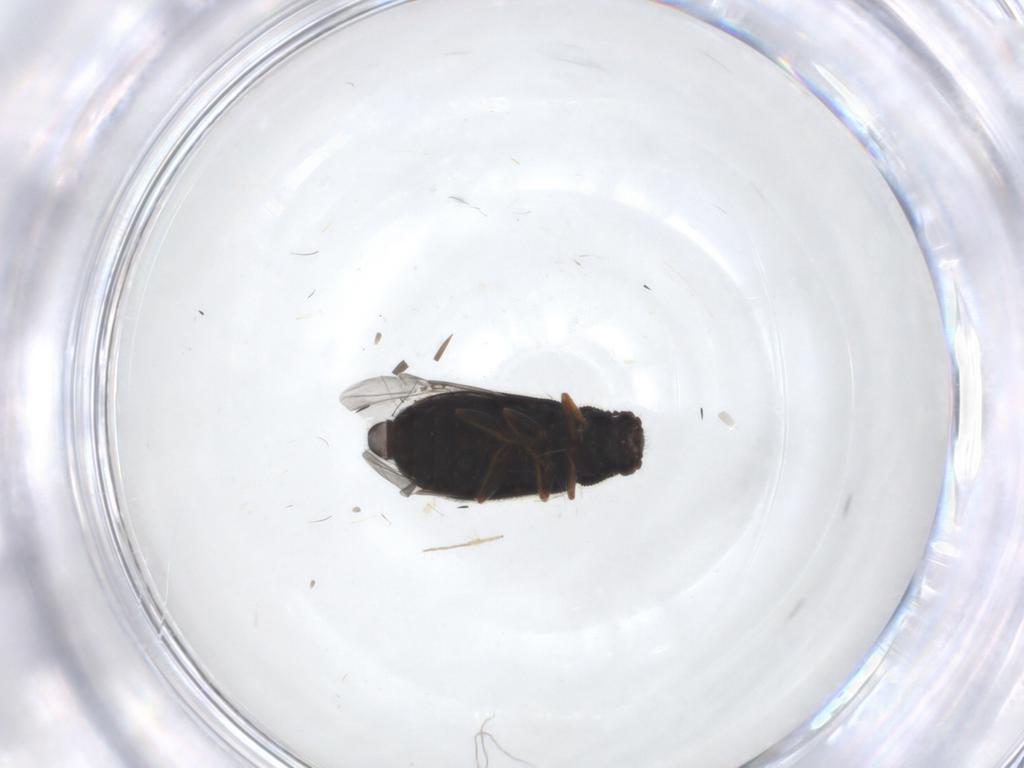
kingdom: Animalia
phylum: Arthropoda
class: Insecta
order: Coleoptera
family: Melyridae
